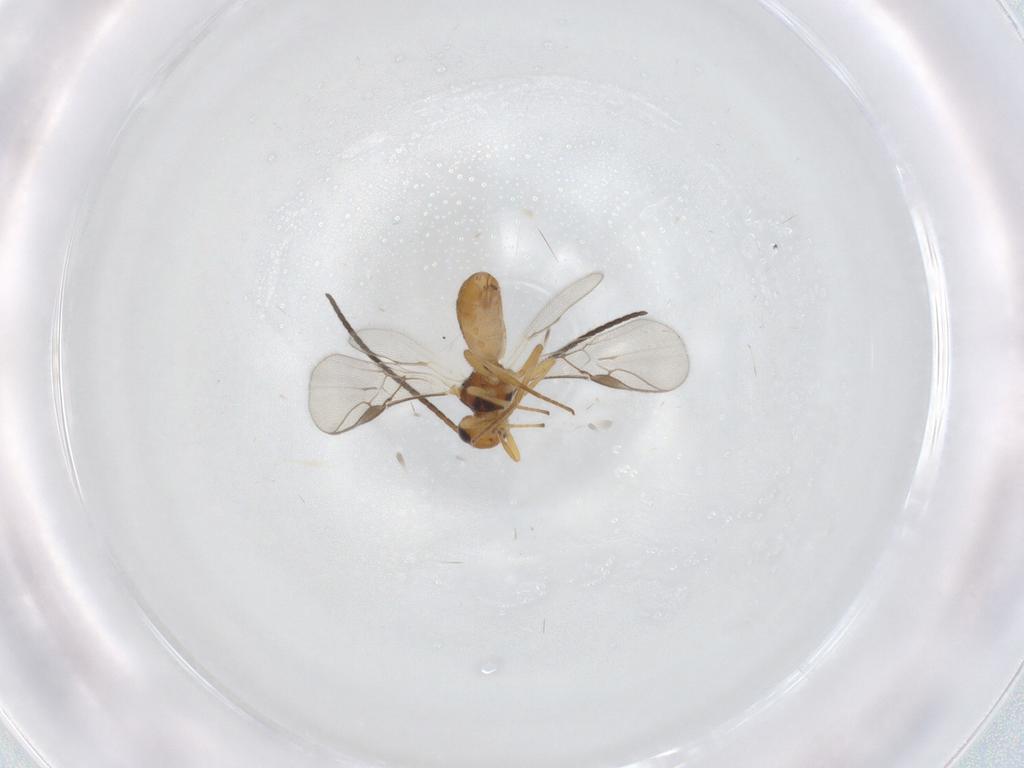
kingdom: Animalia
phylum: Arthropoda
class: Insecta
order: Hymenoptera
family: Braconidae
